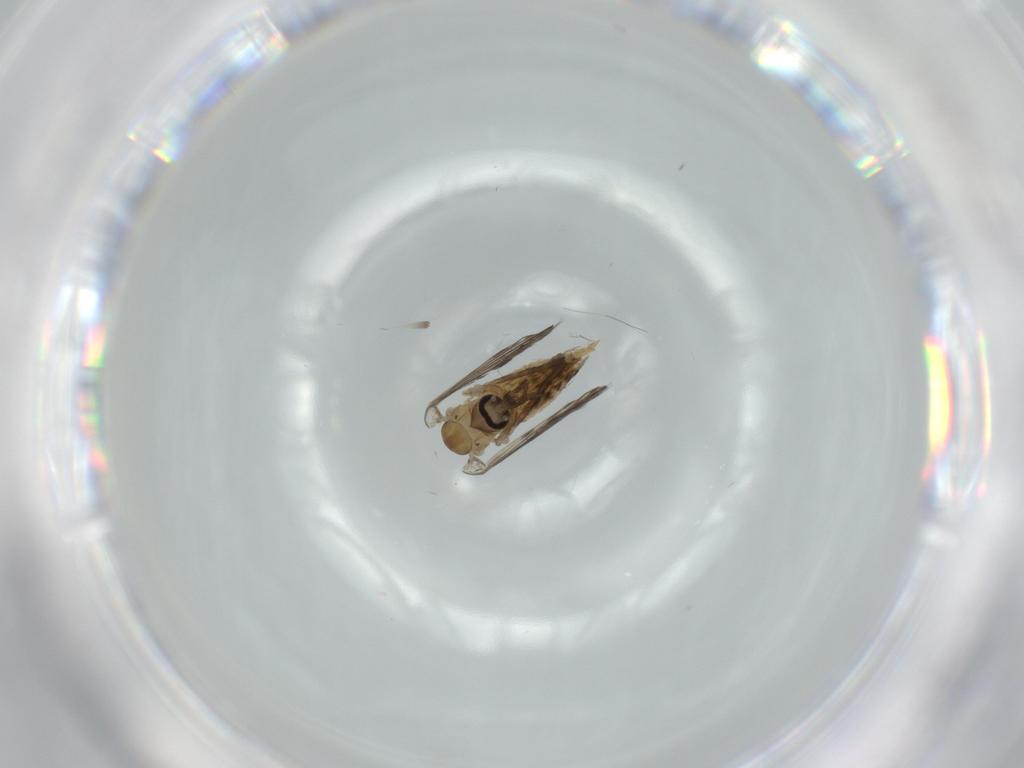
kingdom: Animalia
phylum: Arthropoda
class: Insecta
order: Diptera
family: Psychodidae
